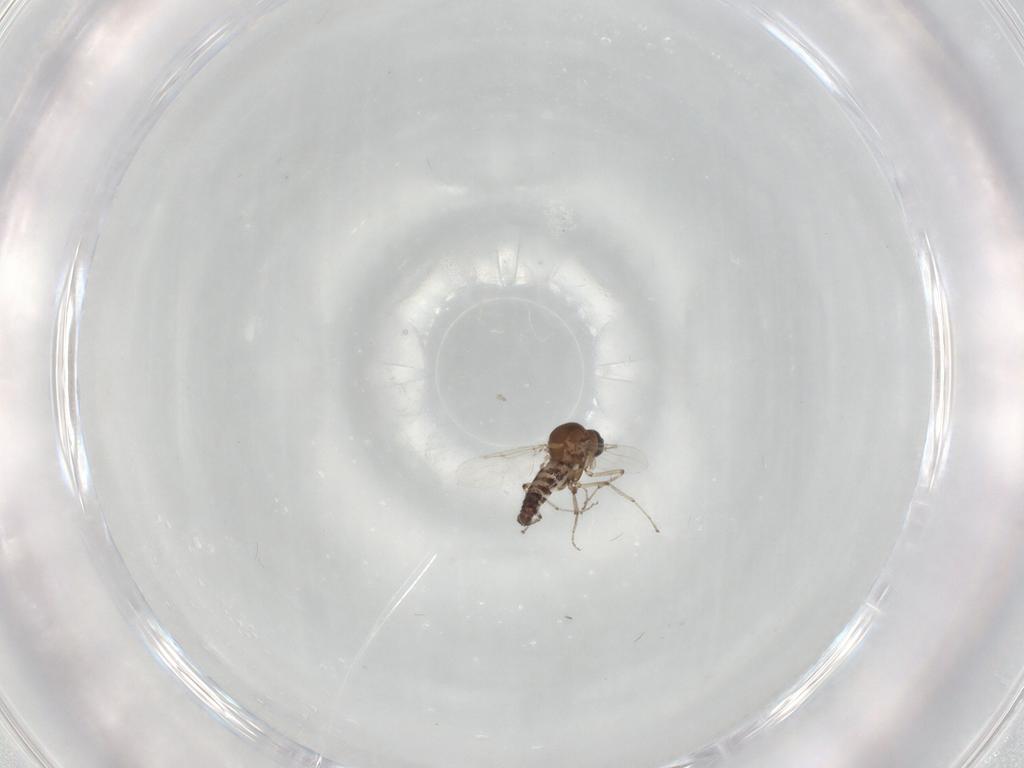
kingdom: Animalia
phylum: Arthropoda
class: Insecta
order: Diptera
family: Ceratopogonidae
